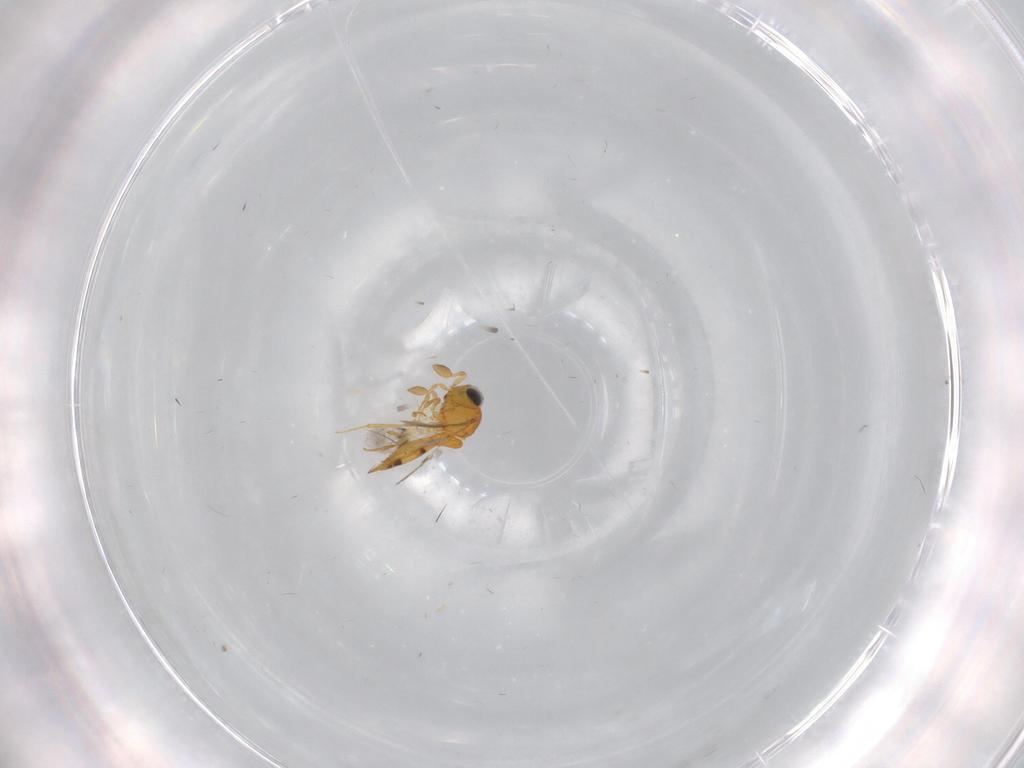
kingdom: Animalia
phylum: Arthropoda
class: Insecta
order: Hymenoptera
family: Scelionidae
